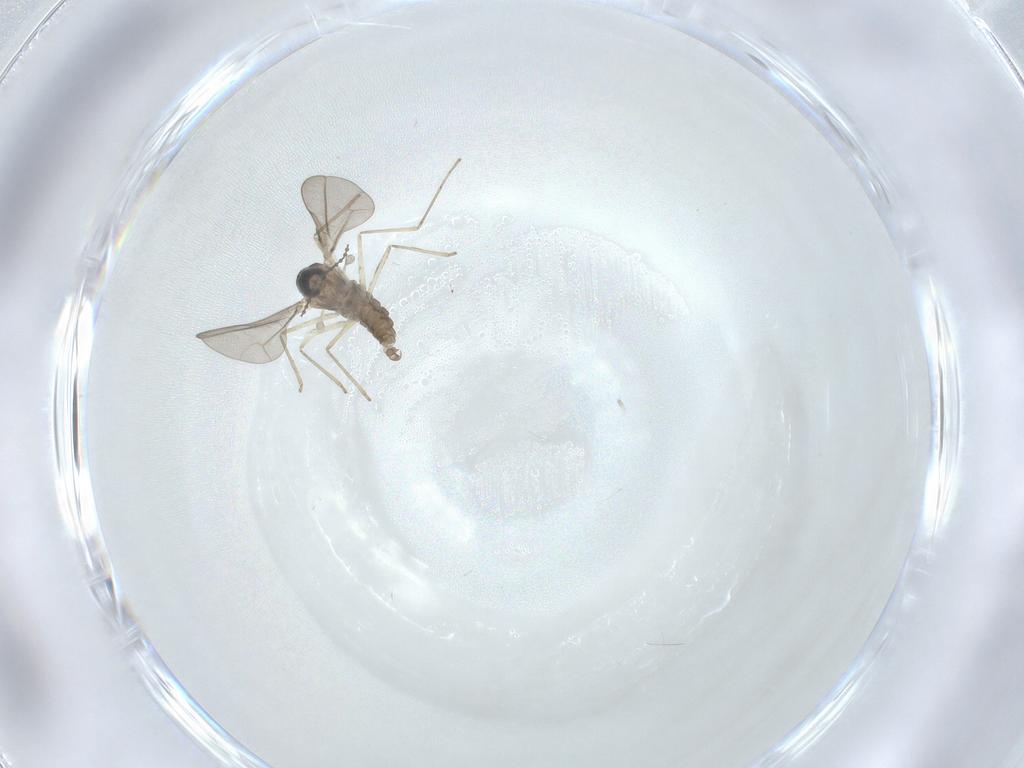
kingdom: Animalia
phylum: Arthropoda
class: Insecta
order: Diptera
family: Cecidomyiidae
